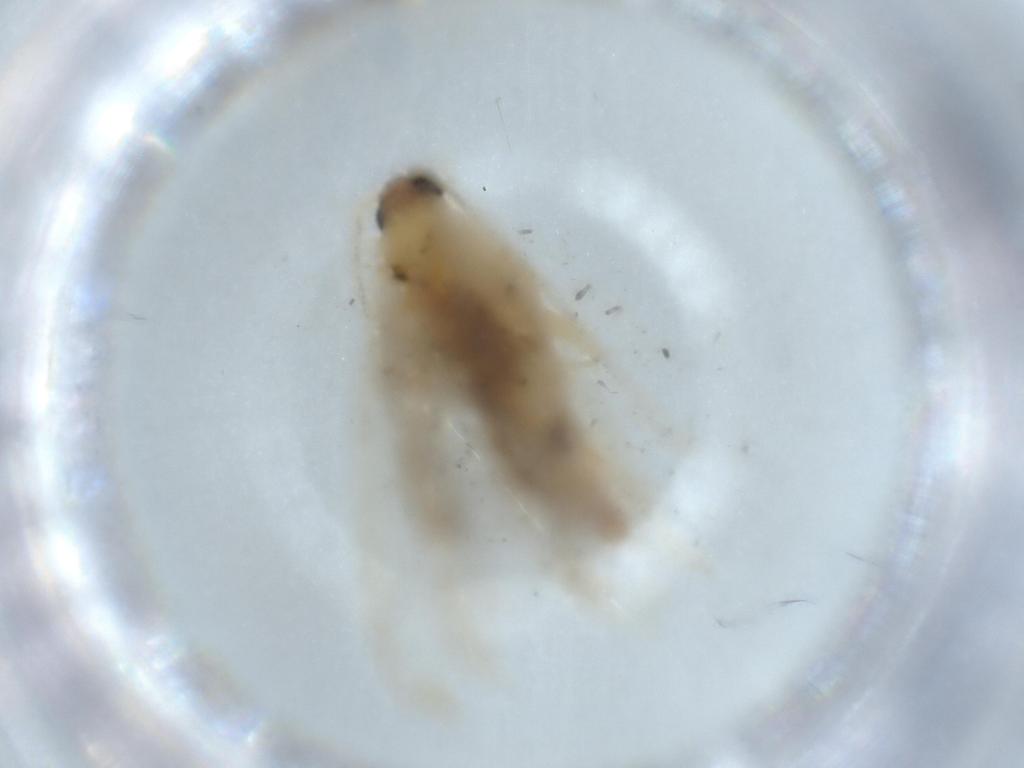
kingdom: Animalia
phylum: Arthropoda
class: Insecta
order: Lepidoptera
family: Tineidae
